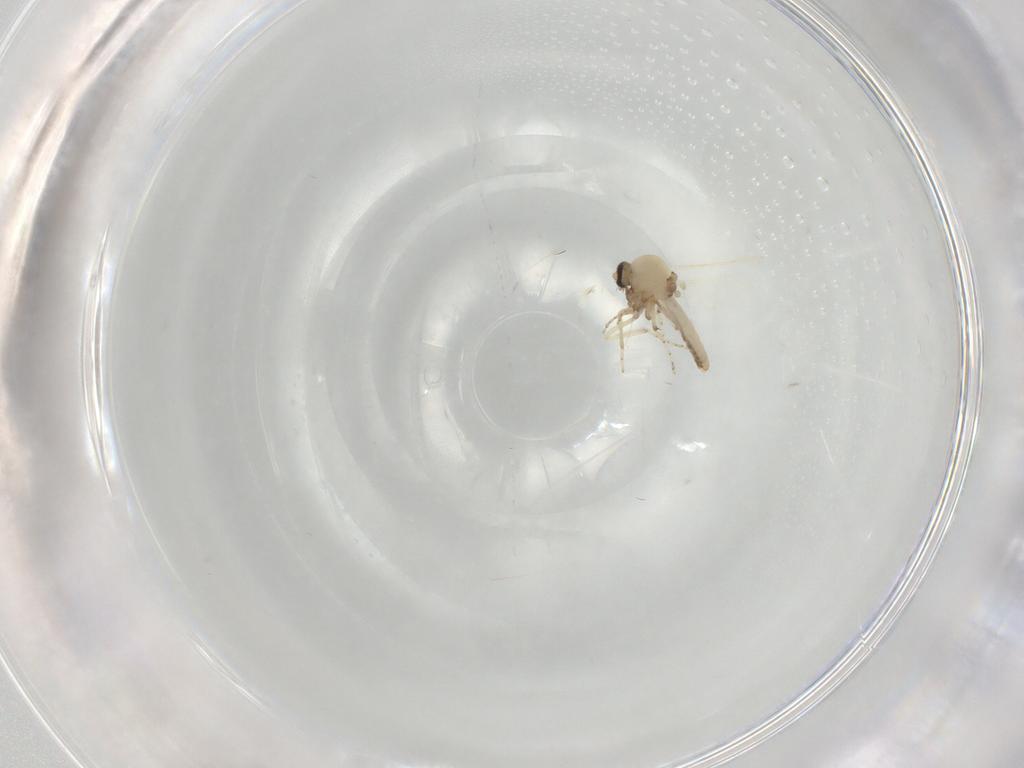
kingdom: Animalia
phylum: Arthropoda
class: Insecta
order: Diptera
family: Ceratopogonidae
